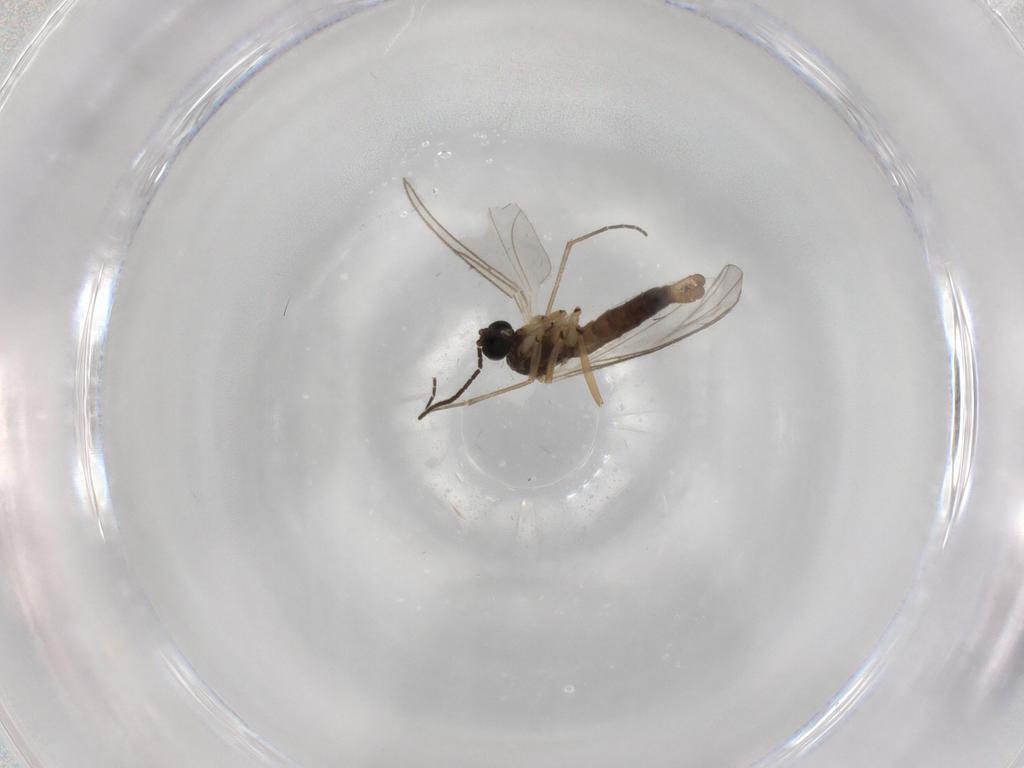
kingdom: Animalia
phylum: Arthropoda
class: Insecta
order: Diptera
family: Sciaridae
